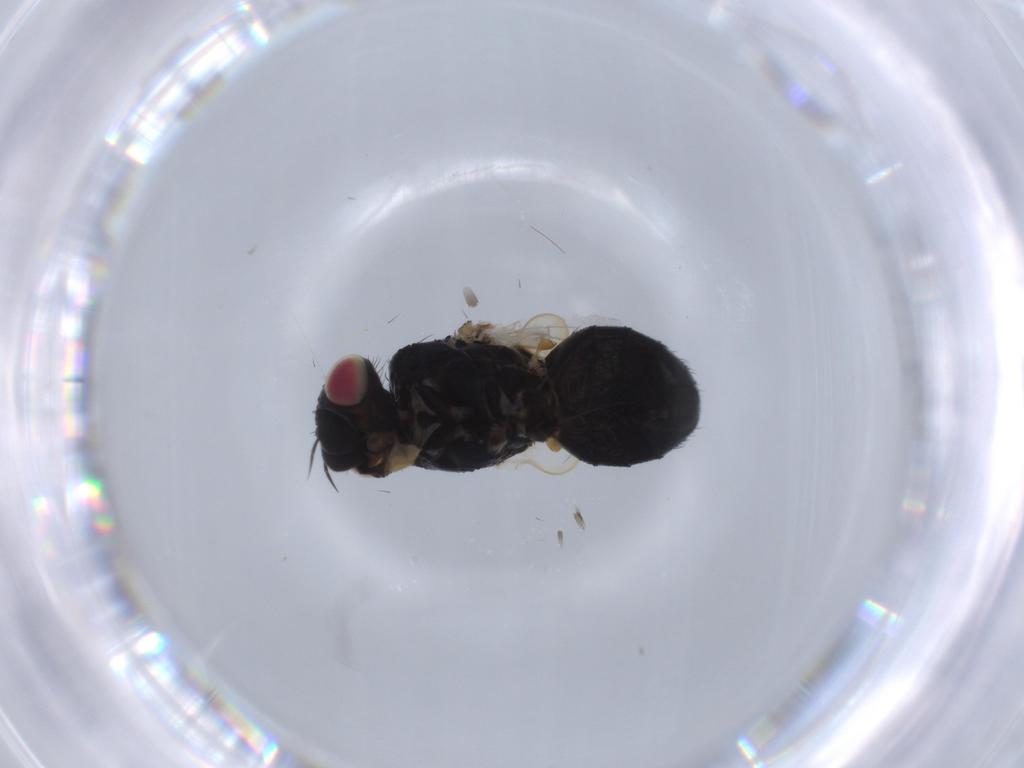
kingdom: Animalia
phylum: Arthropoda
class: Insecta
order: Diptera
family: Tachinidae
